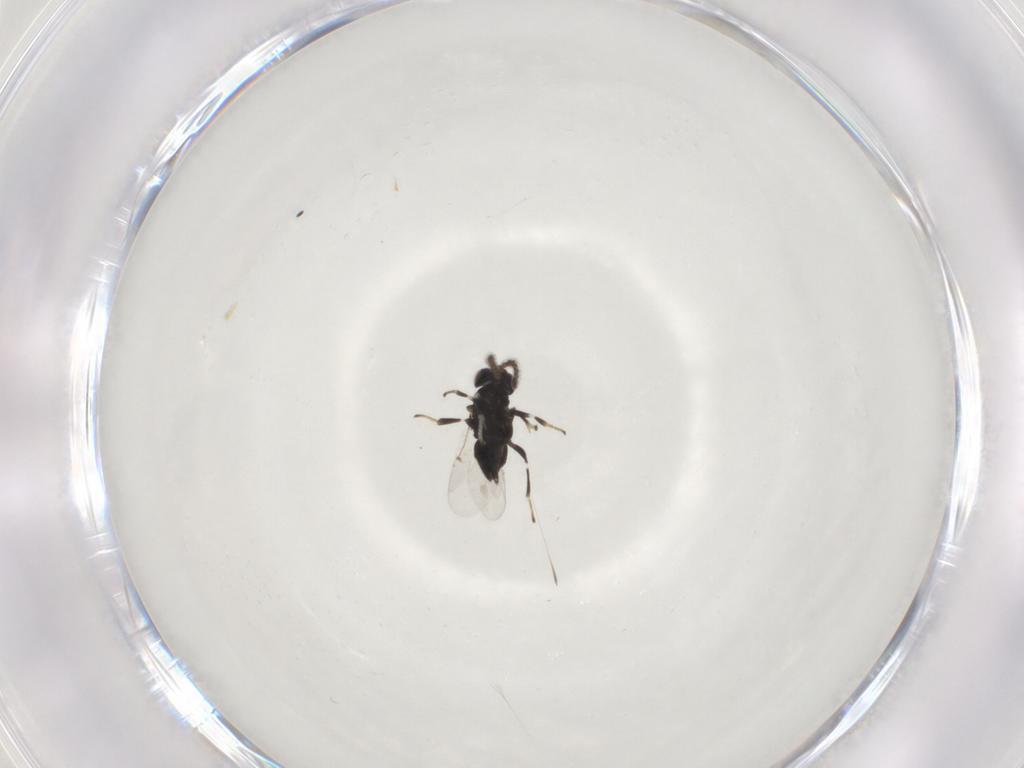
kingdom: Animalia
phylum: Arthropoda
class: Insecta
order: Hymenoptera
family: Encyrtidae
